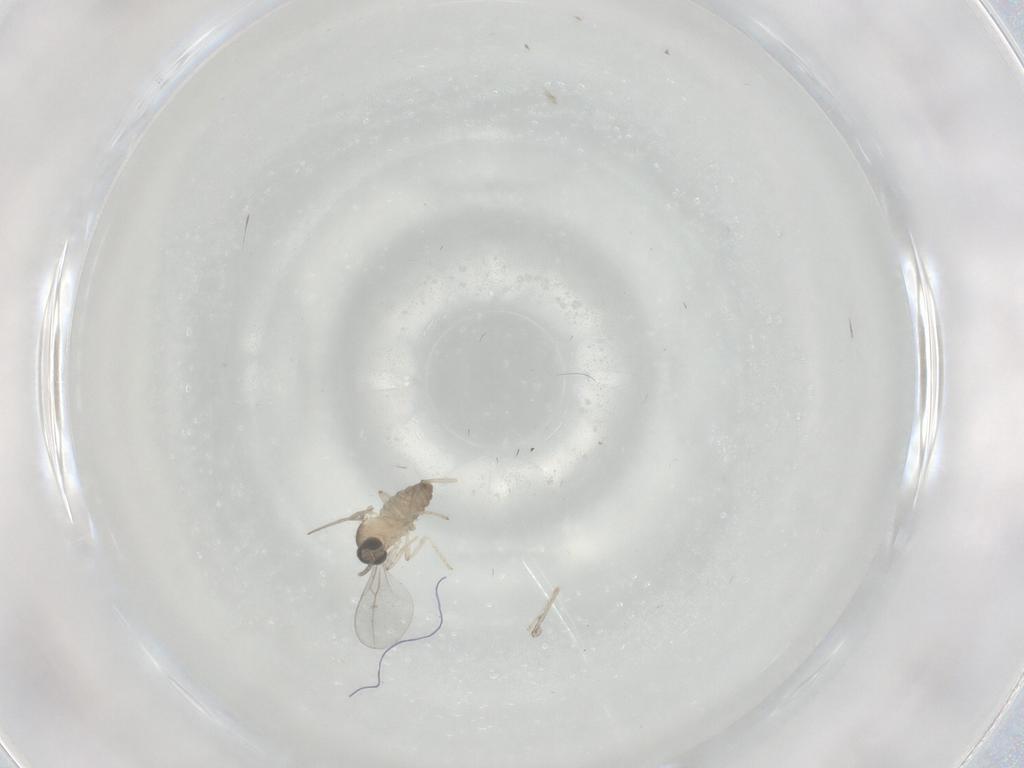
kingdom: Animalia
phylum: Arthropoda
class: Insecta
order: Diptera
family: Cecidomyiidae
